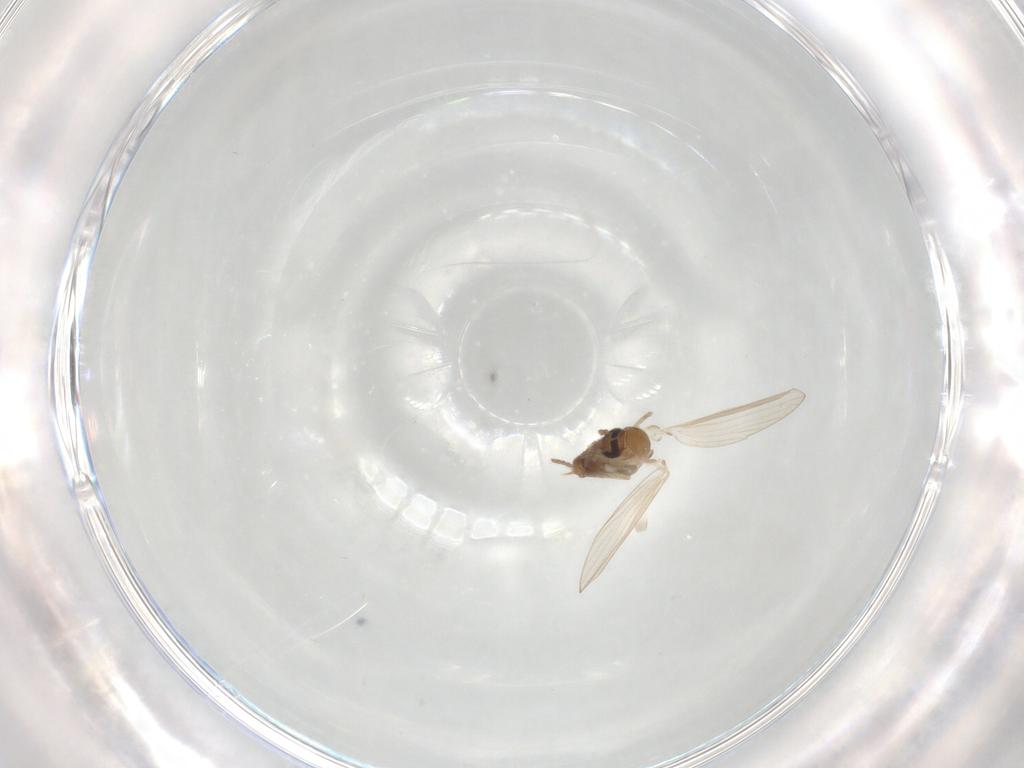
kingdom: Animalia
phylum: Arthropoda
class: Insecta
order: Diptera
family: Psychodidae
